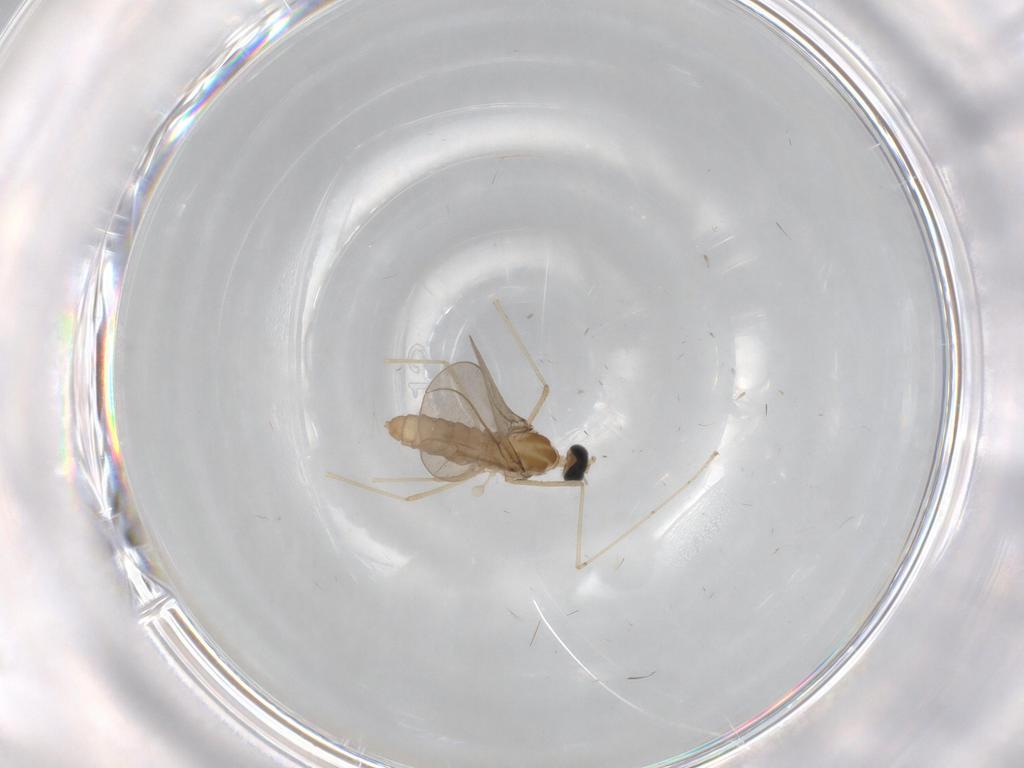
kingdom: Animalia
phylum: Arthropoda
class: Insecta
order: Diptera
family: Cecidomyiidae
